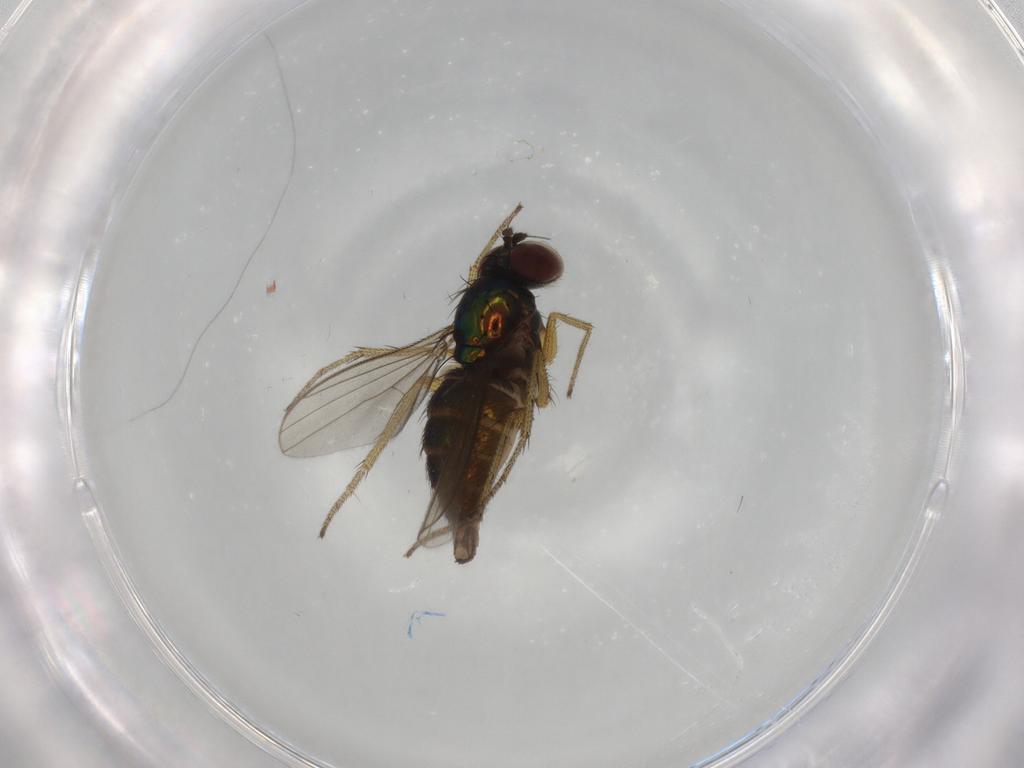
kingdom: Animalia
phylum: Arthropoda
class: Insecta
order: Diptera
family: Dolichopodidae
